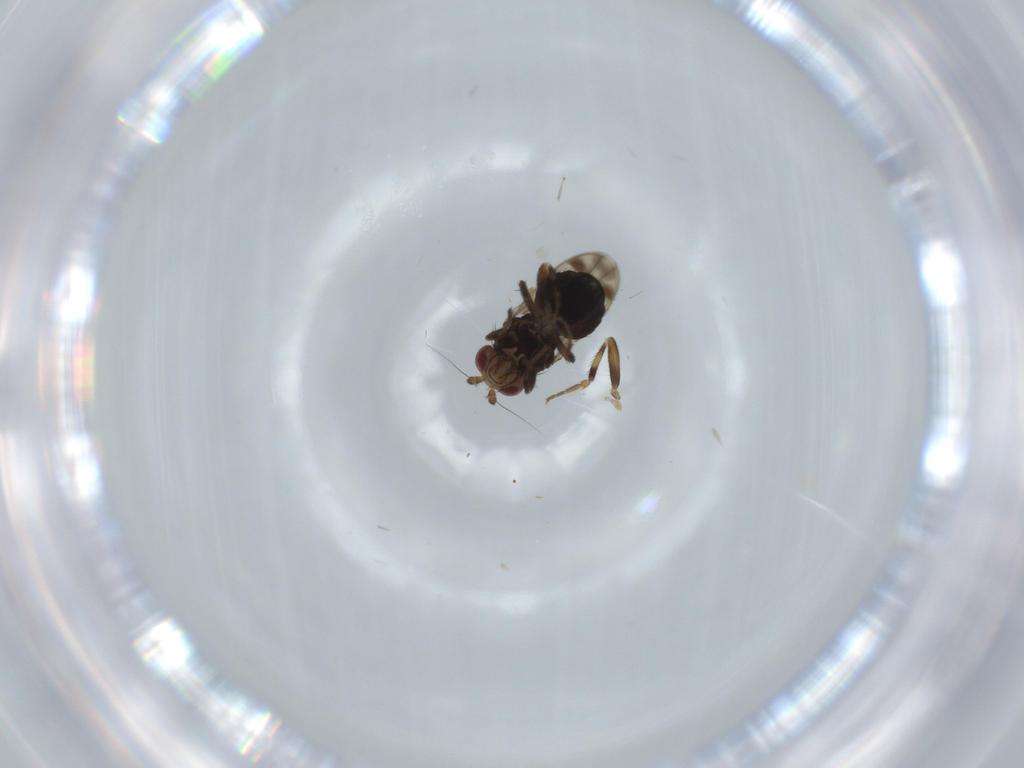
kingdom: Animalia
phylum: Arthropoda
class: Insecta
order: Diptera
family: Sphaeroceridae
